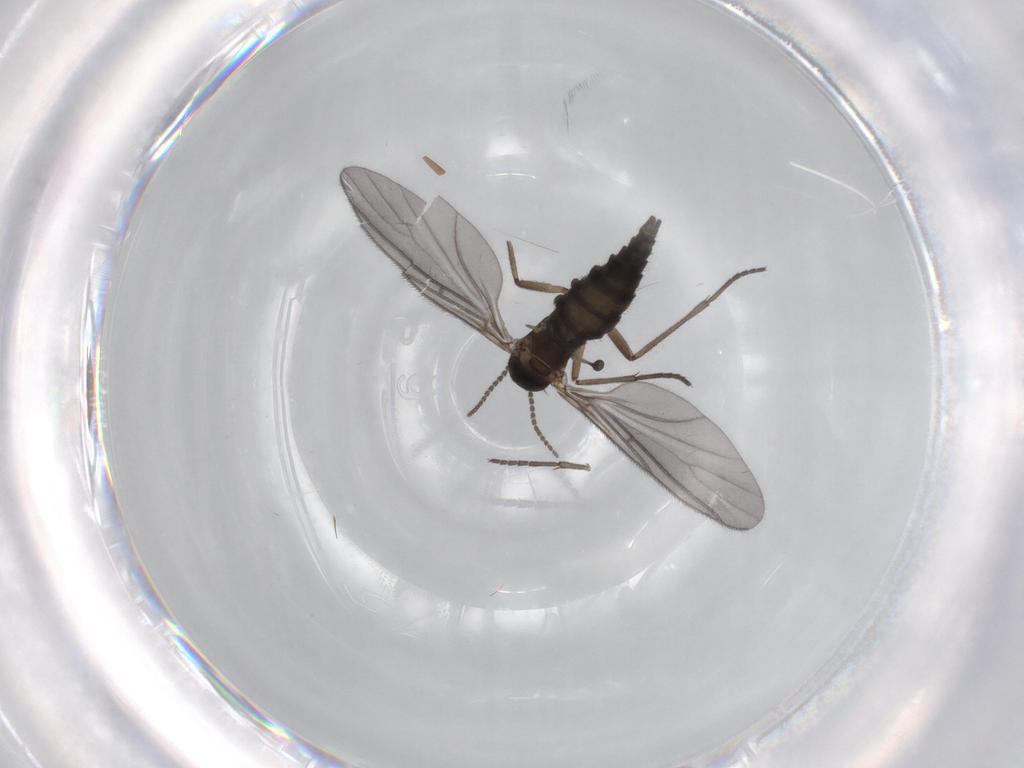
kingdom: Animalia
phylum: Arthropoda
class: Insecta
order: Diptera
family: Sciaridae
